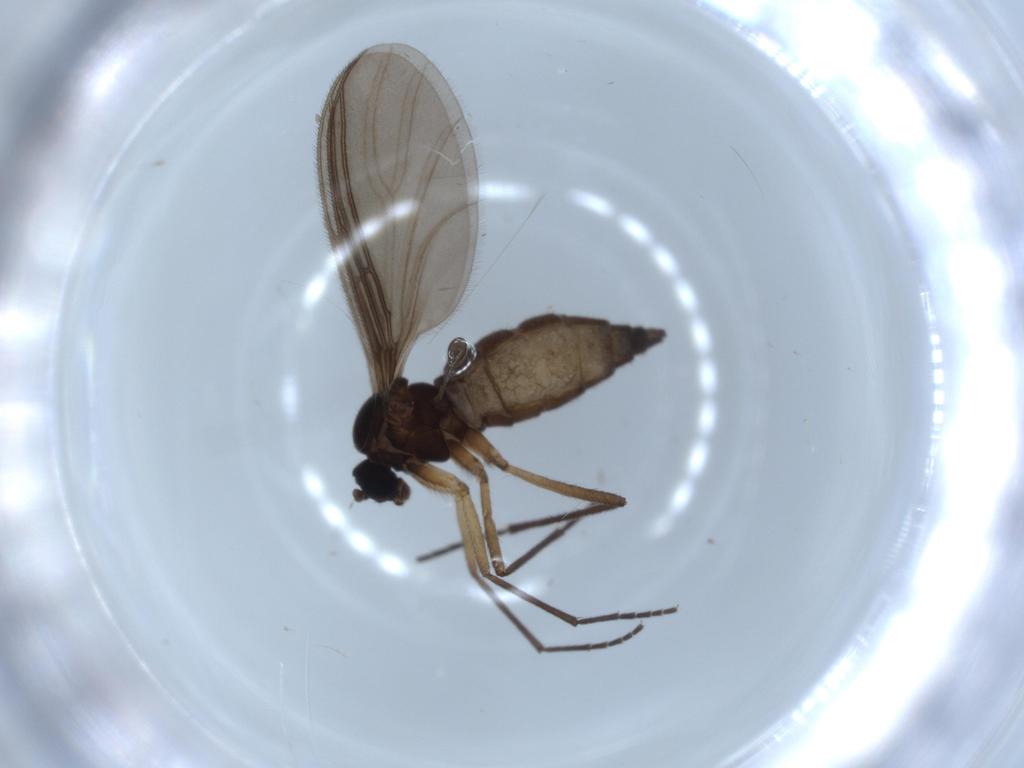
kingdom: Animalia
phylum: Arthropoda
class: Insecta
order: Diptera
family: Sciaridae
